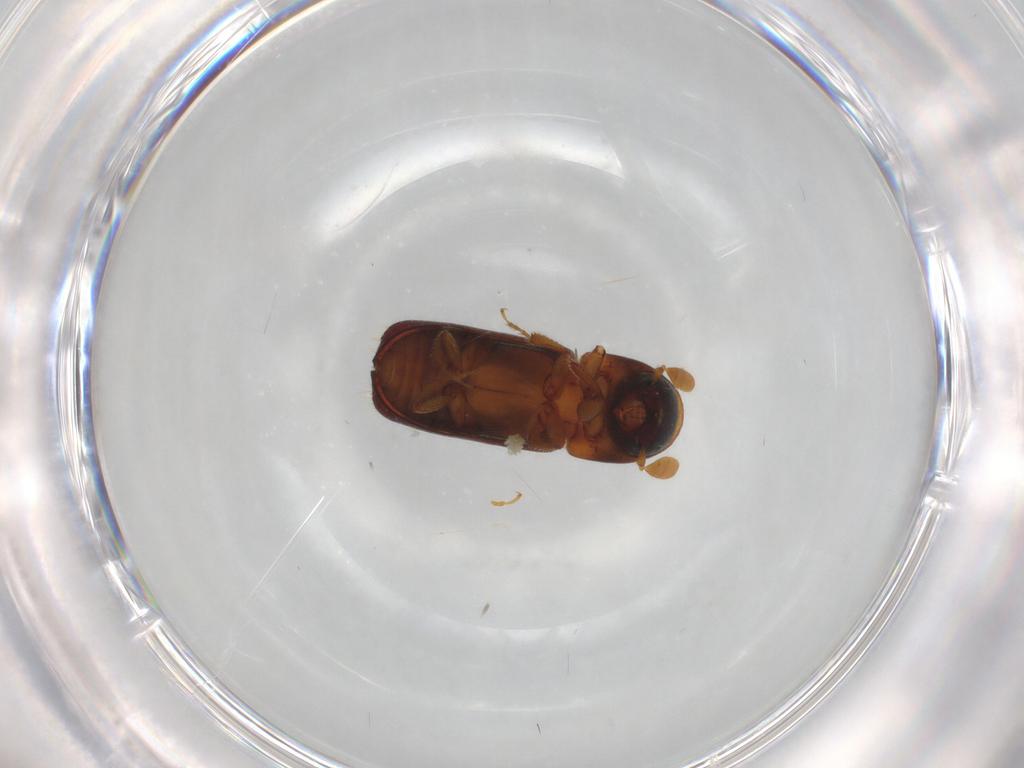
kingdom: Animalia
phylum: Arthropoda
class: Insecta
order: Coleoptera
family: Curculionidae
